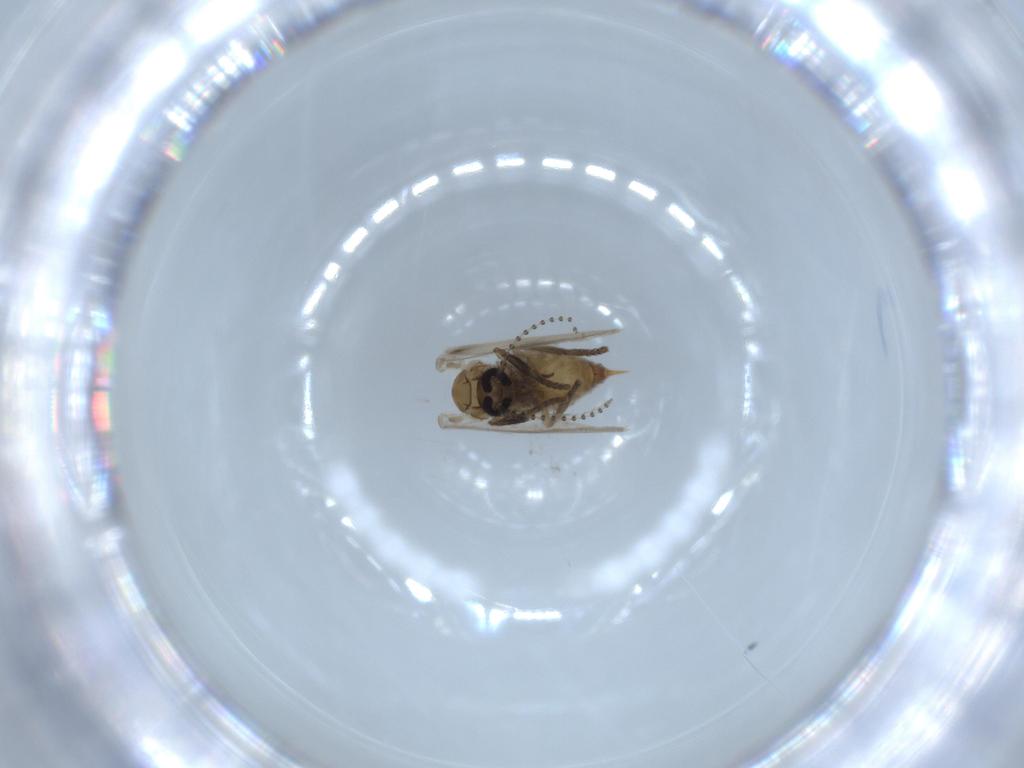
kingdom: Animalia
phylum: Arthropoda
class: Insecta
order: Diptera
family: Psychodidae
